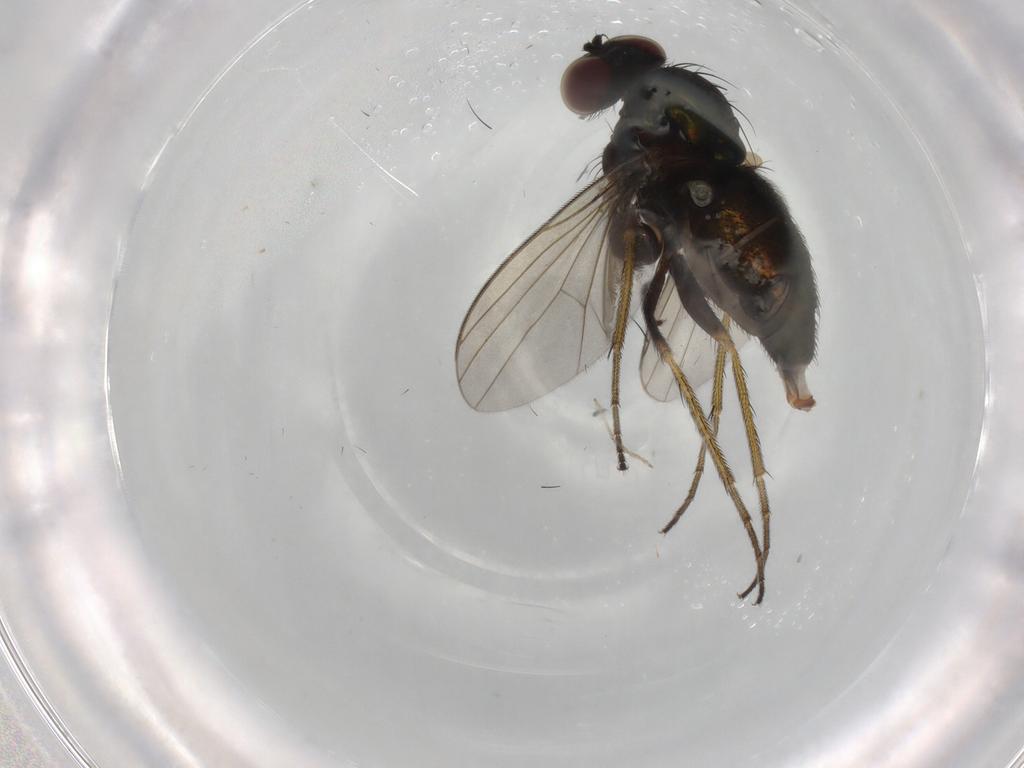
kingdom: Animalia
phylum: Arthropoda
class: Insecta
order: Diptera
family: Dolichopodidae
